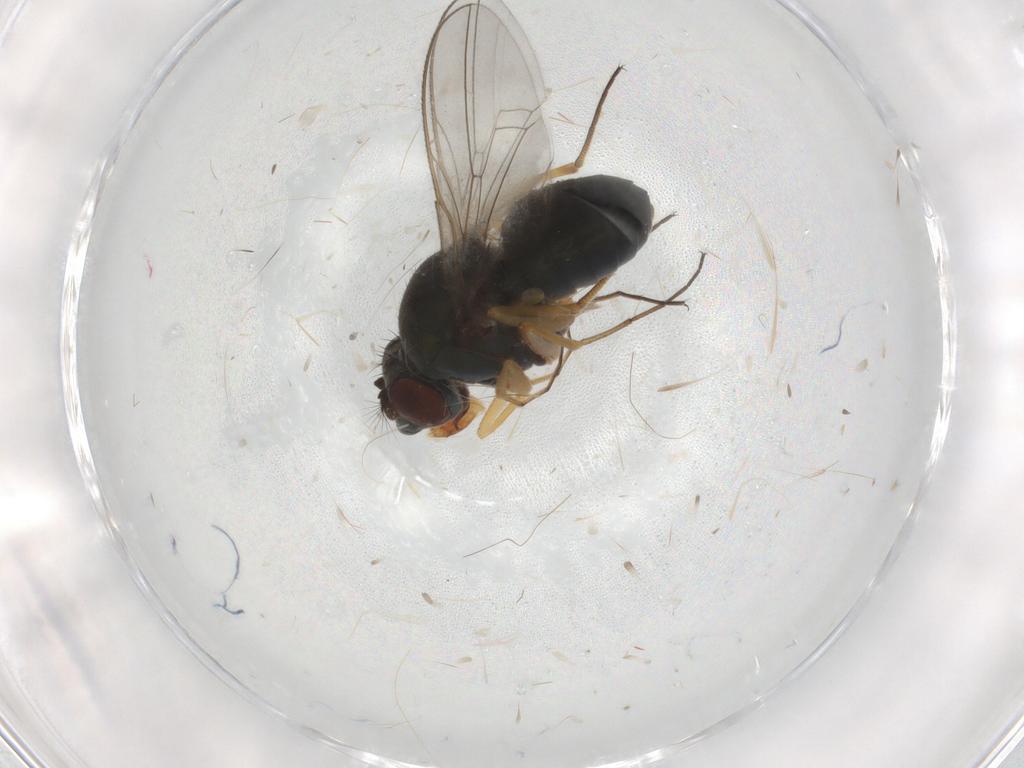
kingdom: Animalia
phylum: Arthropoda
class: Insecta
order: Diptera
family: Ephydridae
